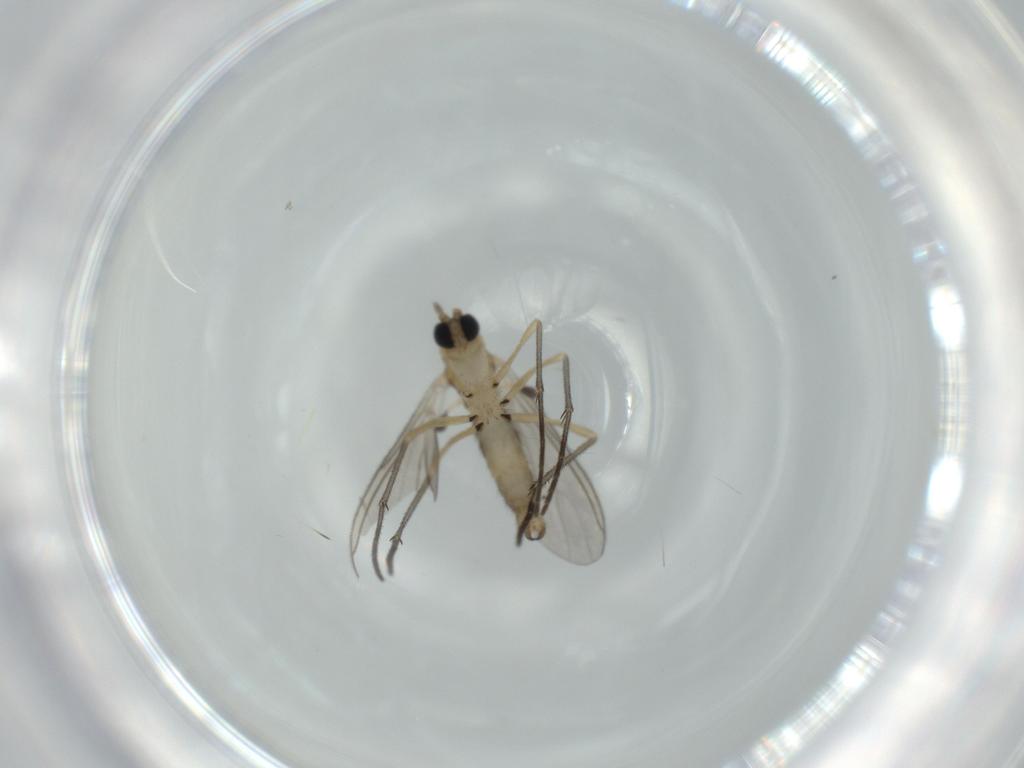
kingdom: Animalia
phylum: Arthropoda
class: Insecta
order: Diptera
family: Sciaridae
